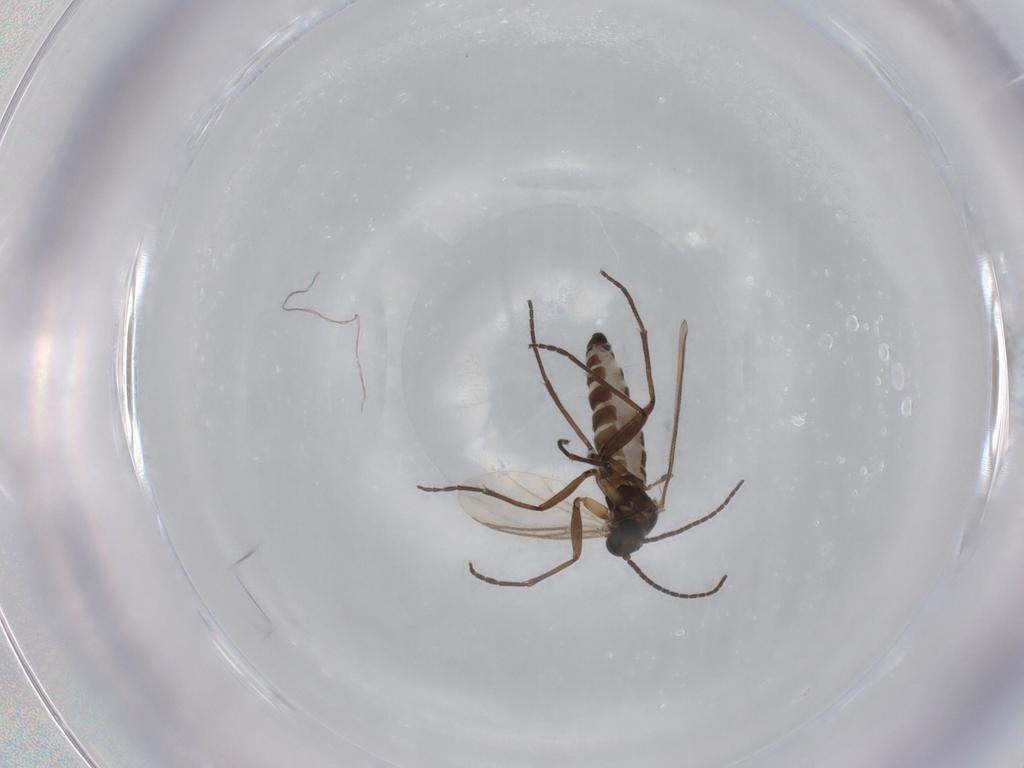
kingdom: Animalia
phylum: Arthropoda
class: Insecta
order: Diptera
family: Sciaridae
